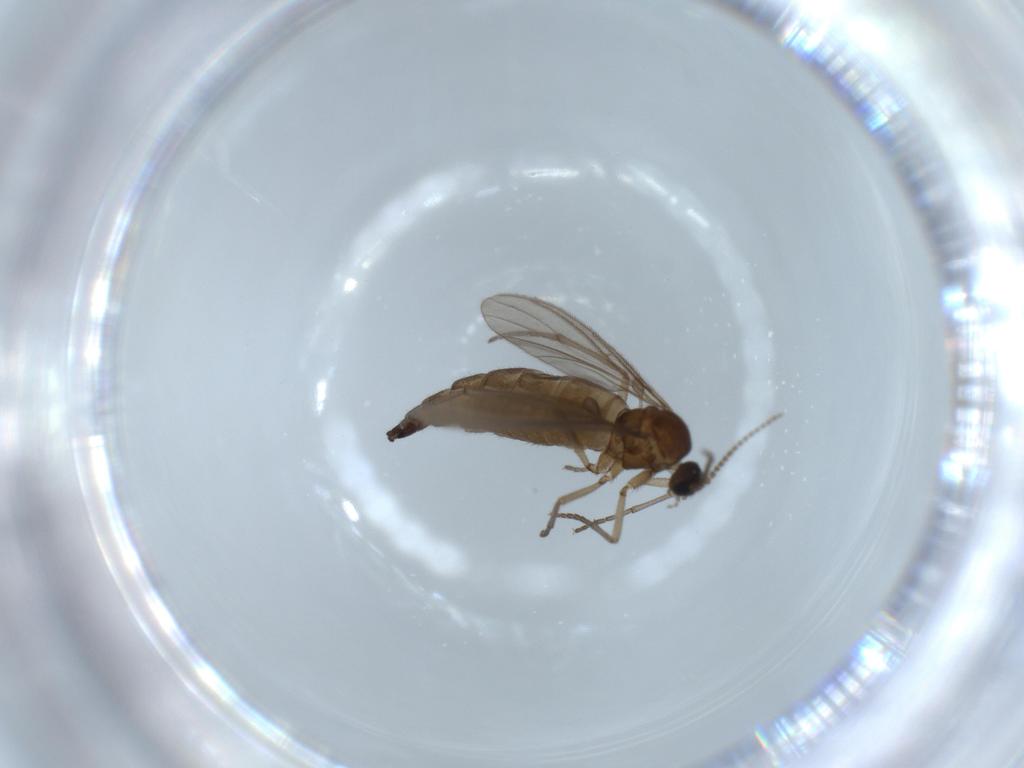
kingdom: Animalia
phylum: Arthropoda
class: Insecta
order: Diptera
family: Sciaridae
